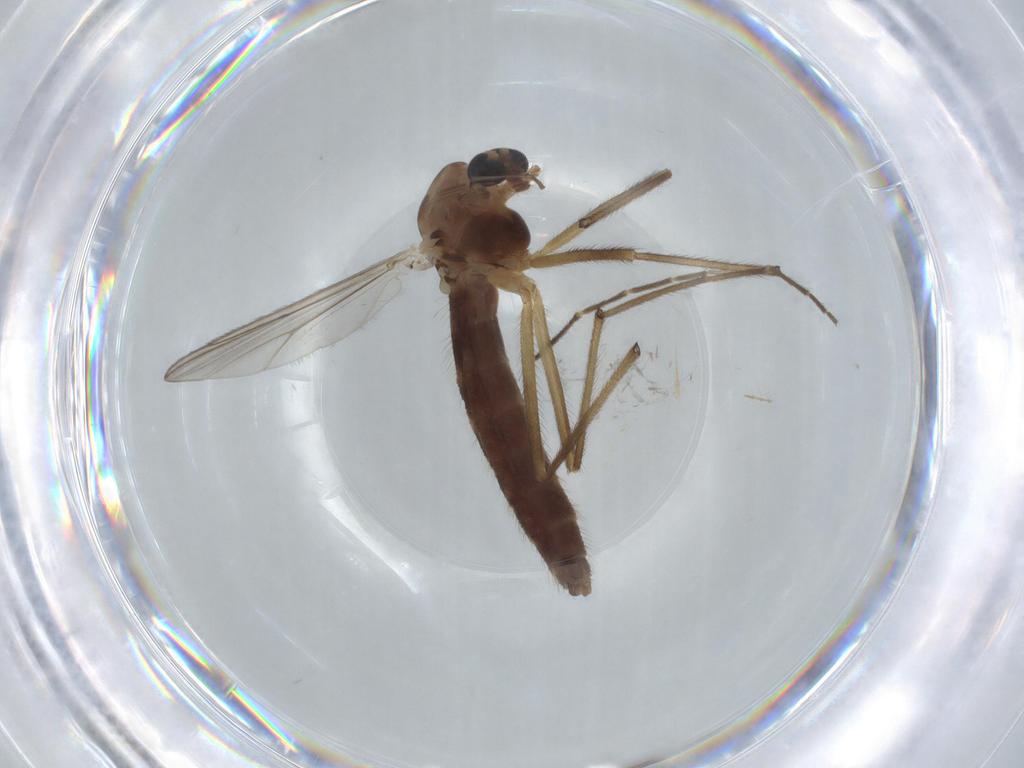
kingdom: Animalia
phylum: Arthropoda
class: Insecta
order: Diptera
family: Chironomidae
